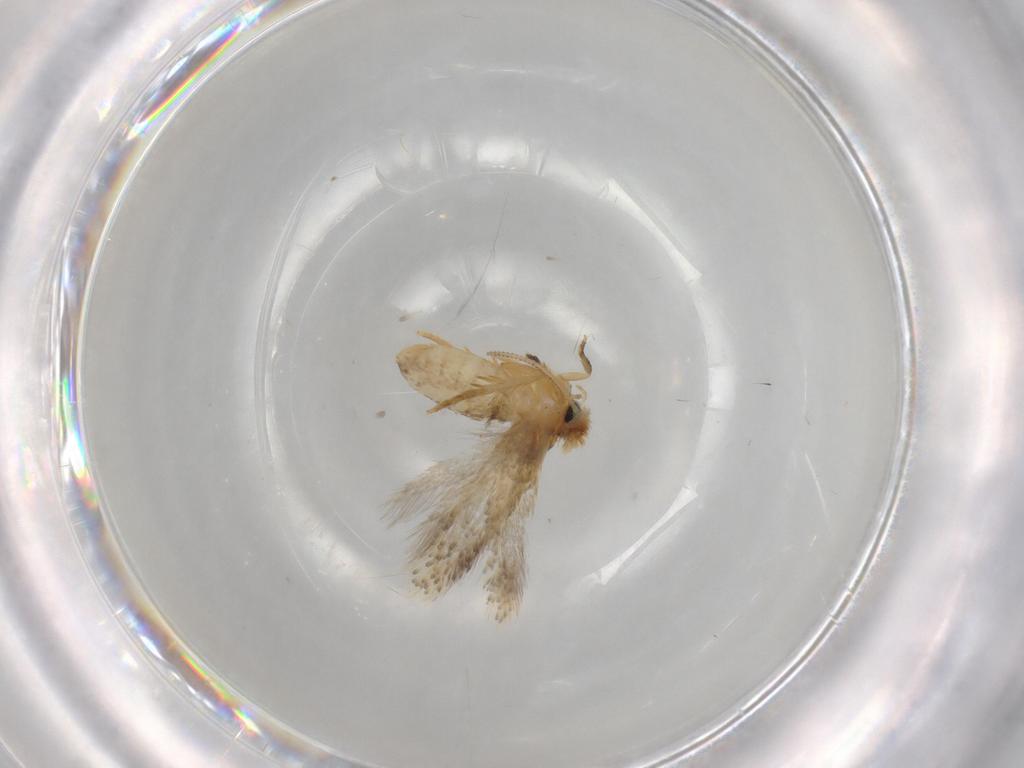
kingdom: Animalia
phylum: Arthropoda
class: Insecta
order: Lepidoptera
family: Nepticulidae
